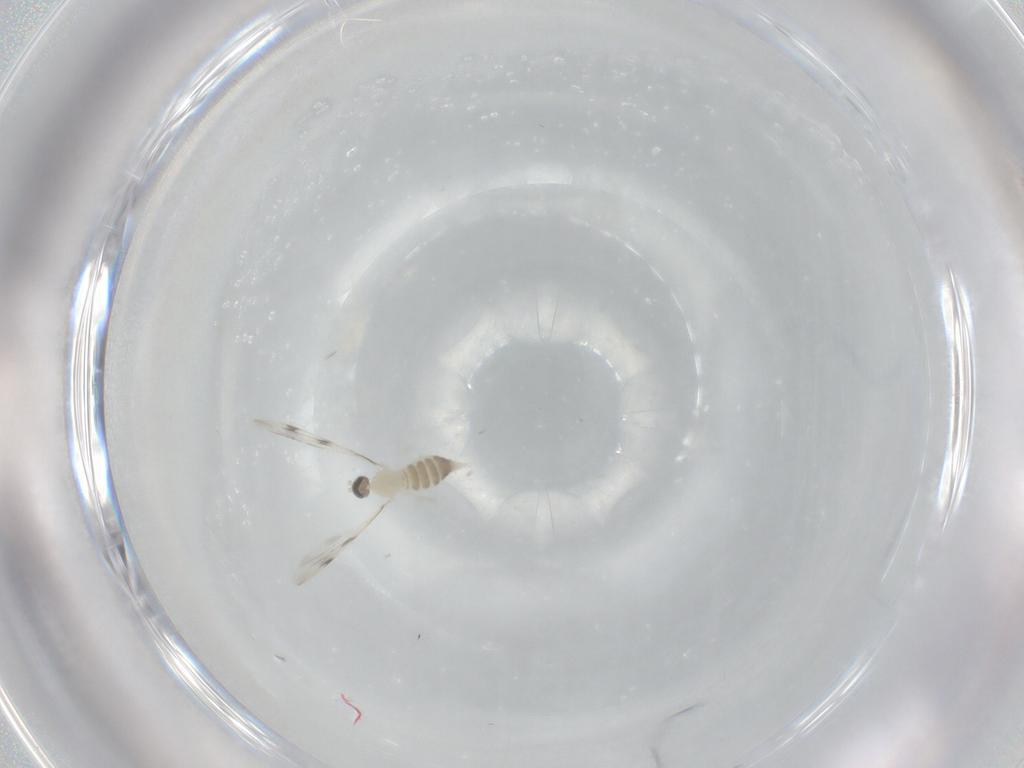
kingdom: Animalia
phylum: Arthropoda
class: Insecta
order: Diptera
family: Cecidomyiidae
